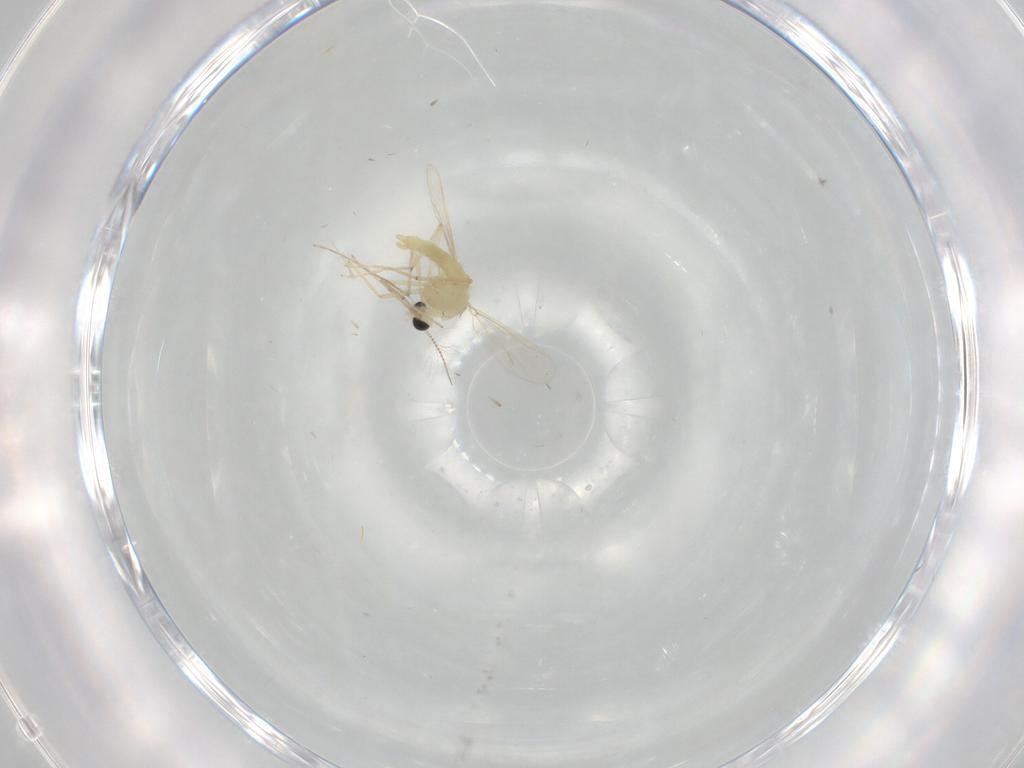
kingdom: Animalia
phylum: Arthropoda
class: Insecta
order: Diptera
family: Chironomidae
